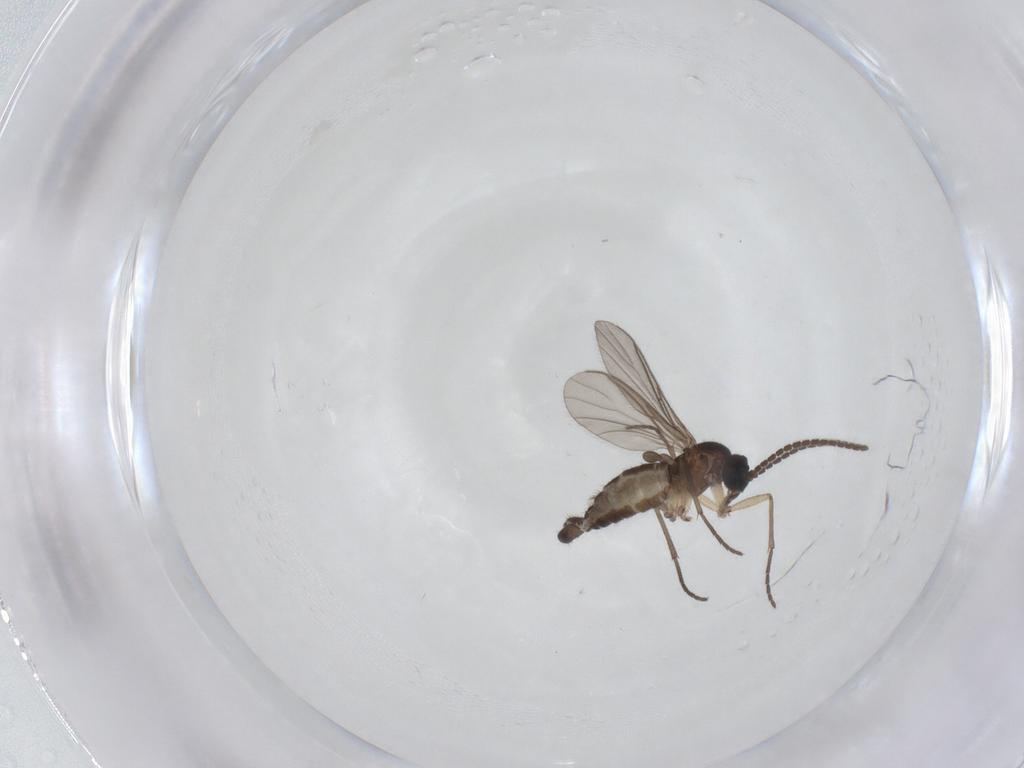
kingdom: Animalia
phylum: Arthropoda
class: Insecta
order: Diptera
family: Sciaridae
